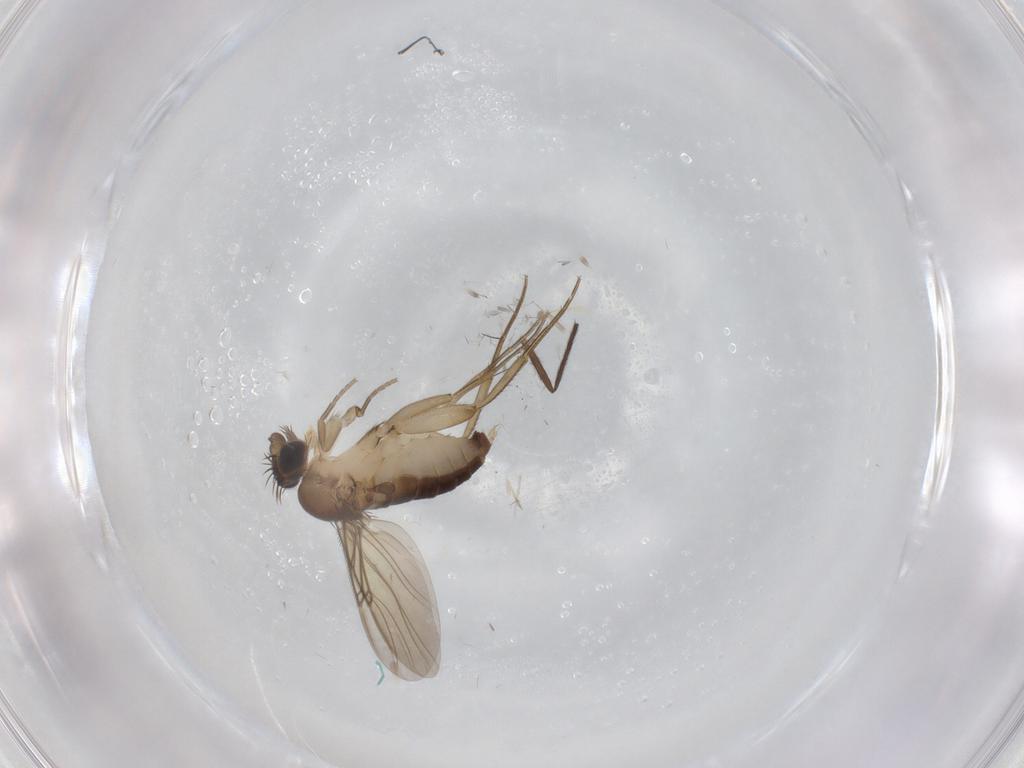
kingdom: Animalia
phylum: Arthropoda
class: Insecta
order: Diptera
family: Phoridae
